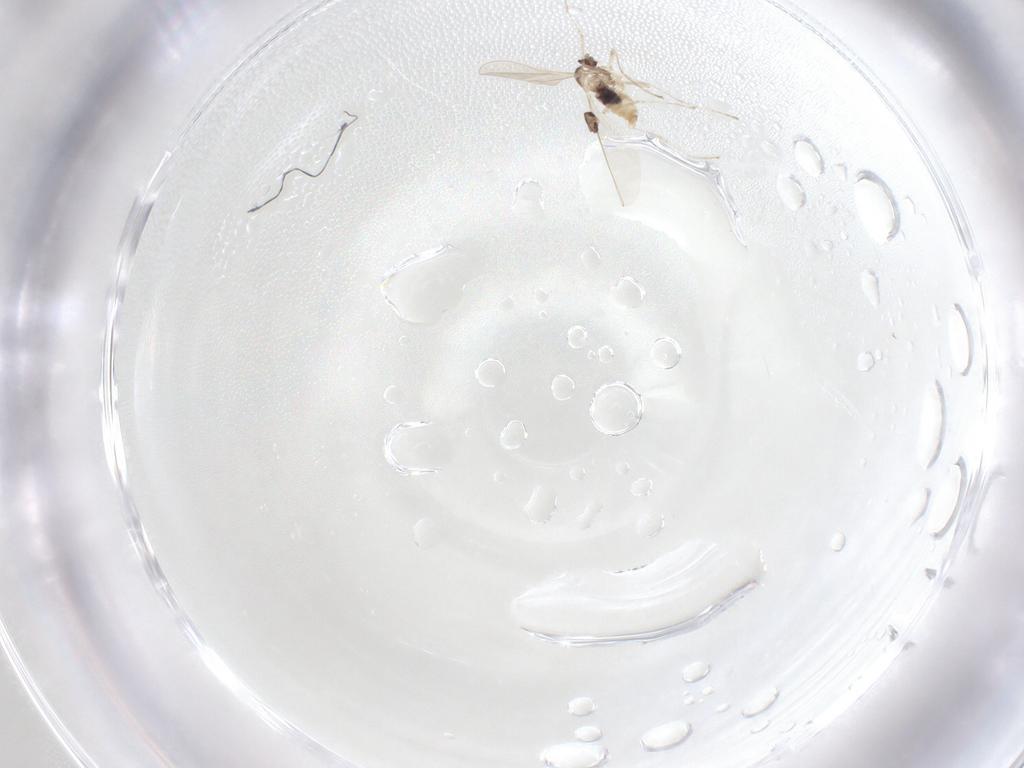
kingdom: Animalia
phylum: Arthropoda
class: Insecta
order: Diptera
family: Cecidomyiidae
